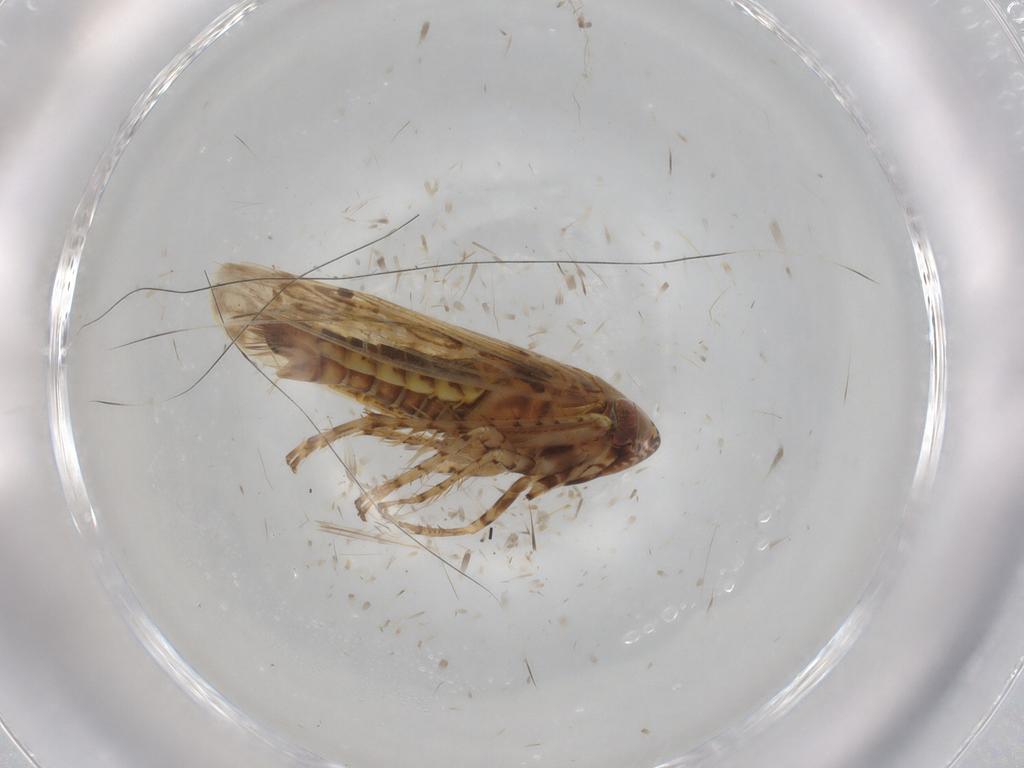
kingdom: Animalia
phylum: Arthropoda
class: Insecta
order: Hemiptera
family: Cicadellidae
